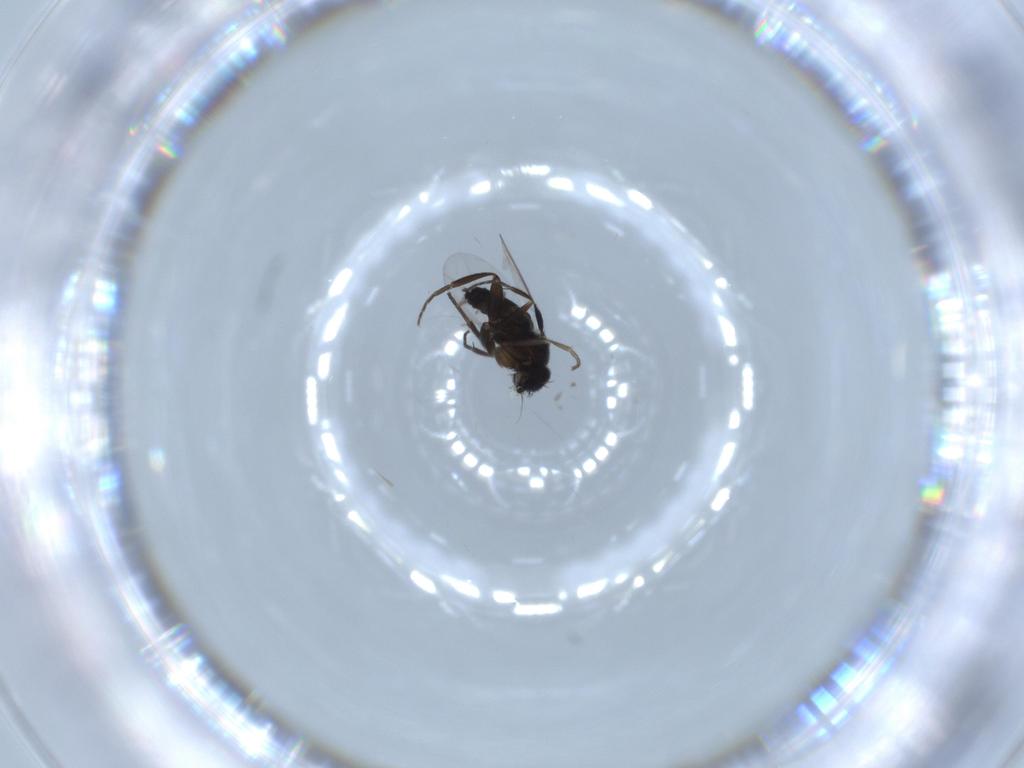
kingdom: Animalia
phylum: Arthropoda
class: Insecta
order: Diptera
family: Phoridae
